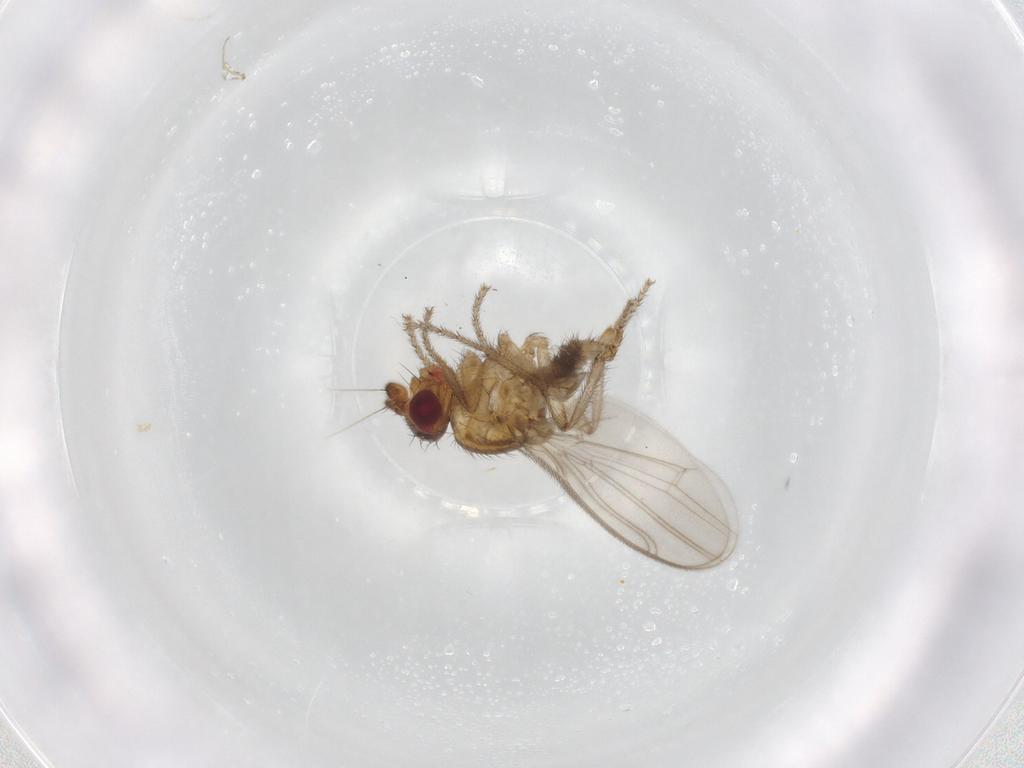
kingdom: Animalia
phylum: Arthropoda
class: Insecta
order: Diptera
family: Sphaeroceridae
